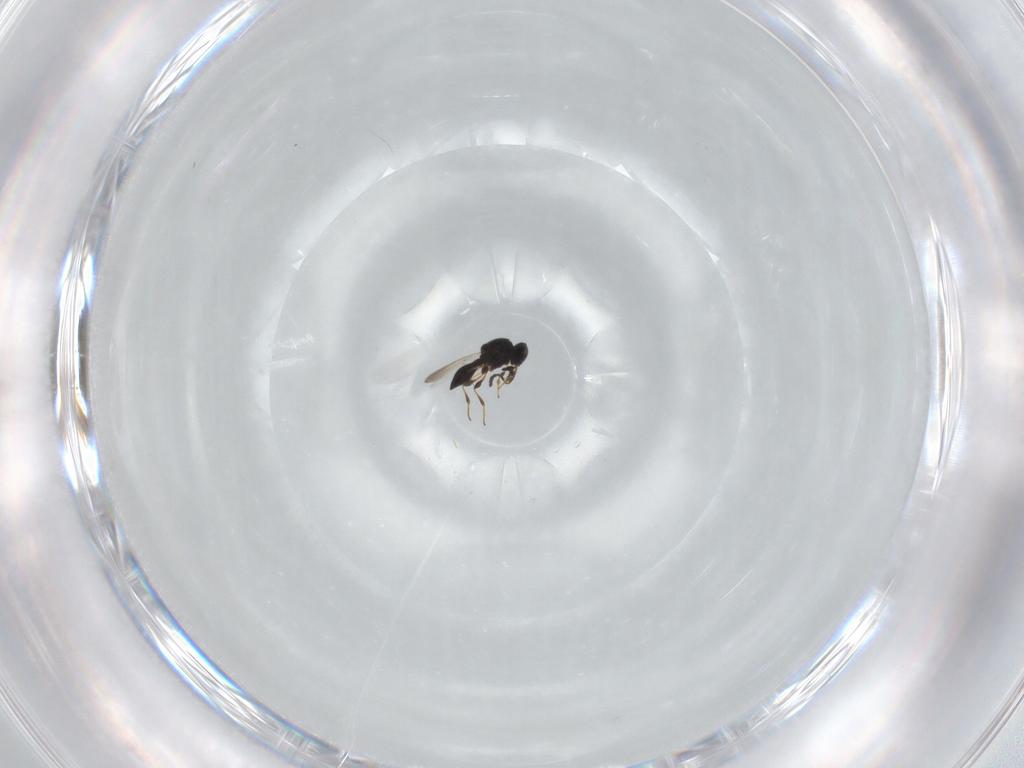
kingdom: Animalia
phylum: Arthropoda
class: Insecta
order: Hymenoptera
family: Platygastridae
